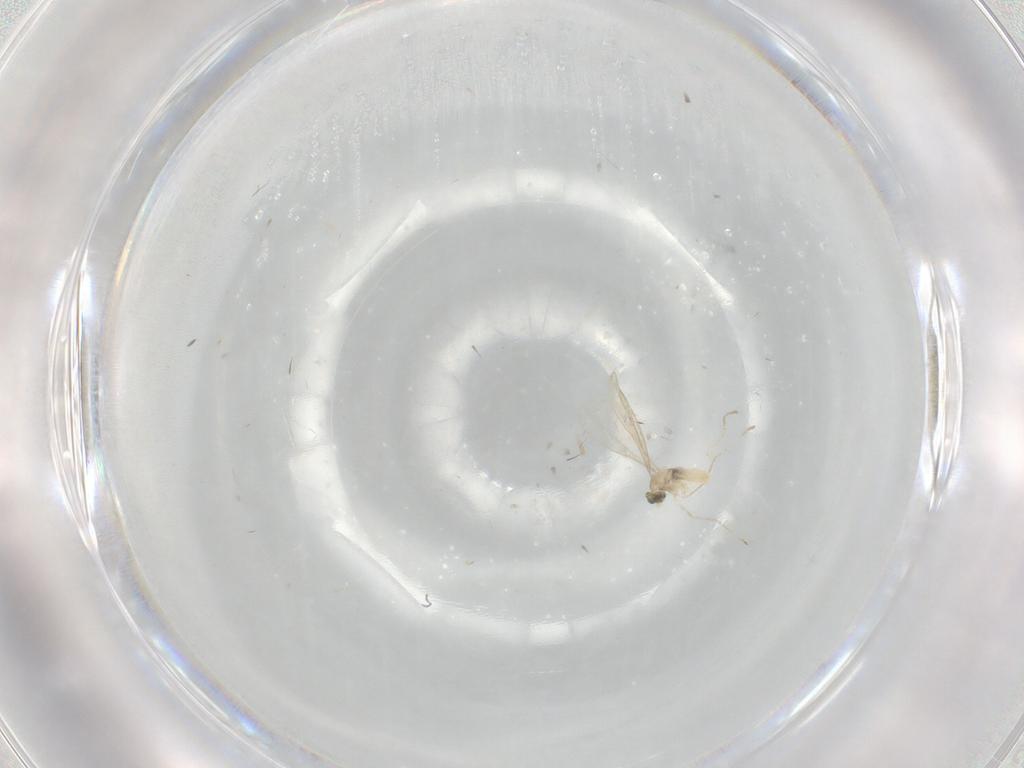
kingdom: Animalia
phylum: Arthropoda
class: Insecta
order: Diptera
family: Cecidomyiidae
